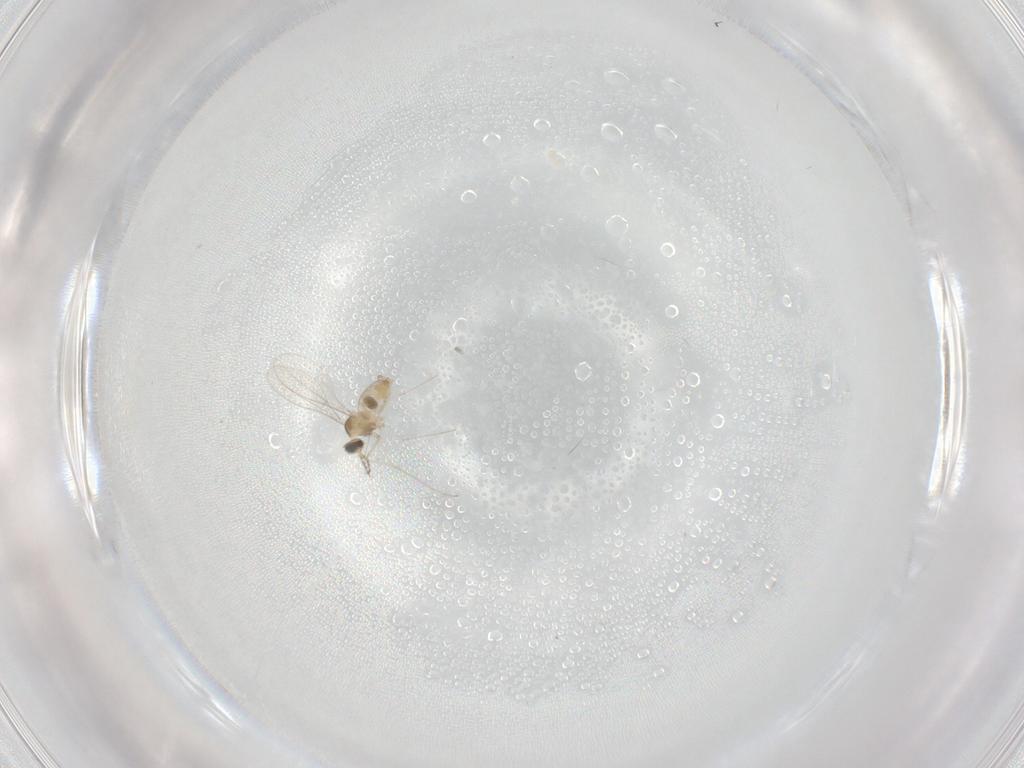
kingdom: Animalia
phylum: Arthropoda
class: Insecta
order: Diptera
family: Cecidomyiidae
